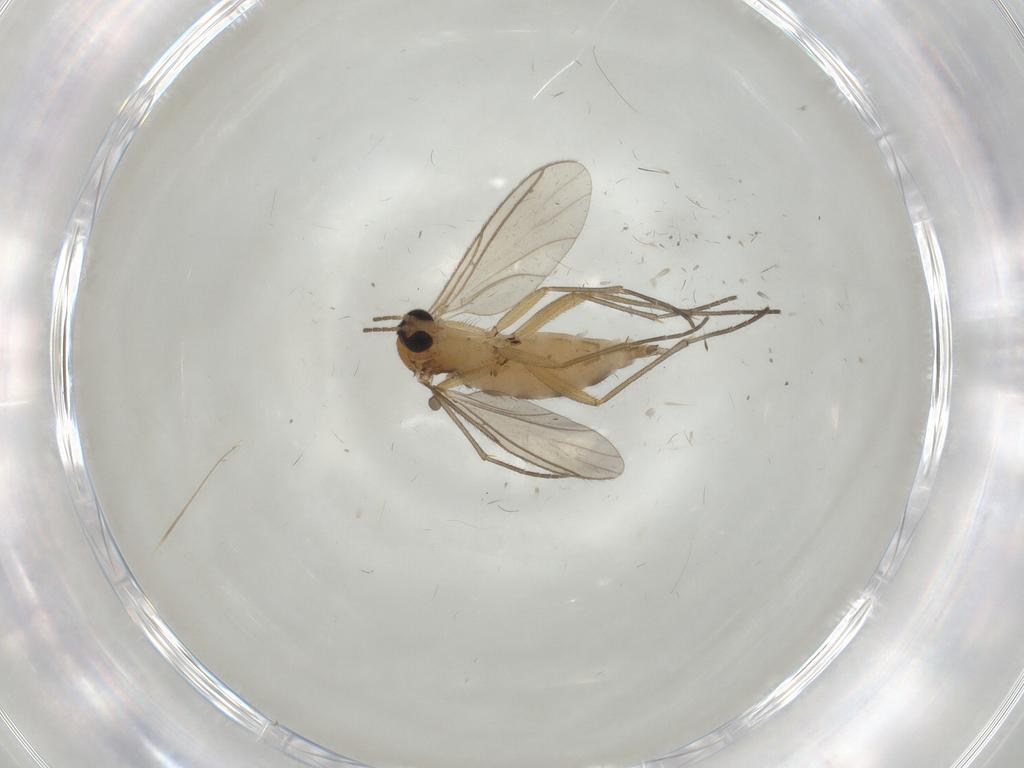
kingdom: Animalia
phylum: Arthropoda
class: Insecta
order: Diptera
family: Sciaridae
